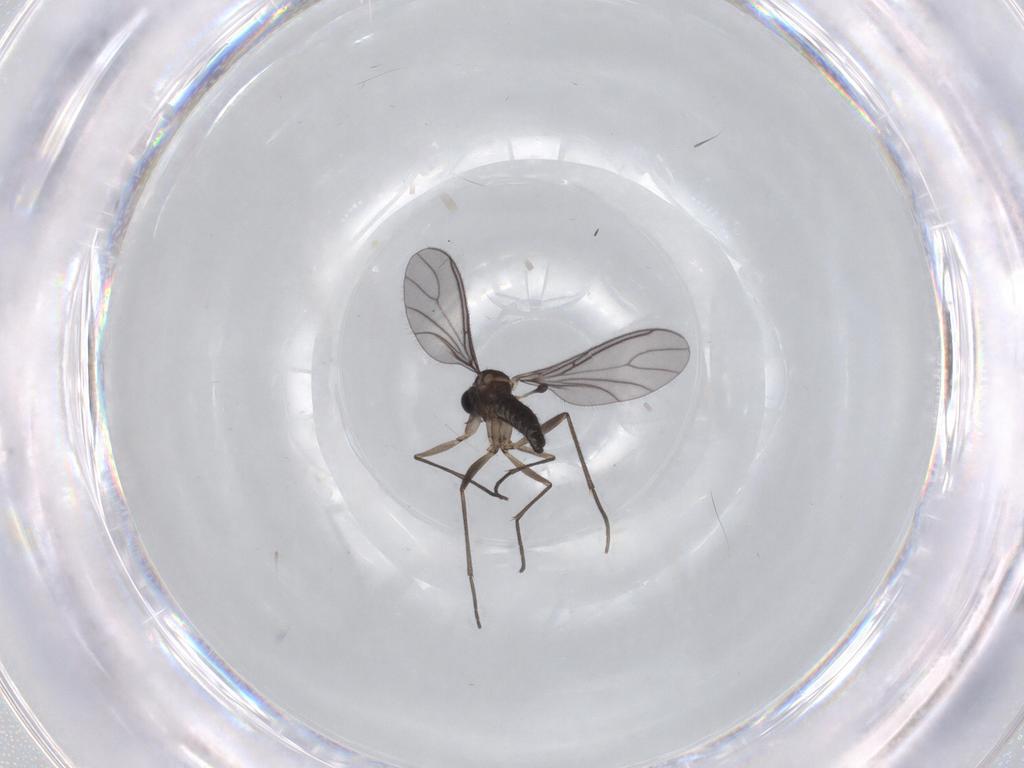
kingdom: Animalia
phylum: Arthropoda
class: Insecta
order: Diptera
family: Sciaridae
